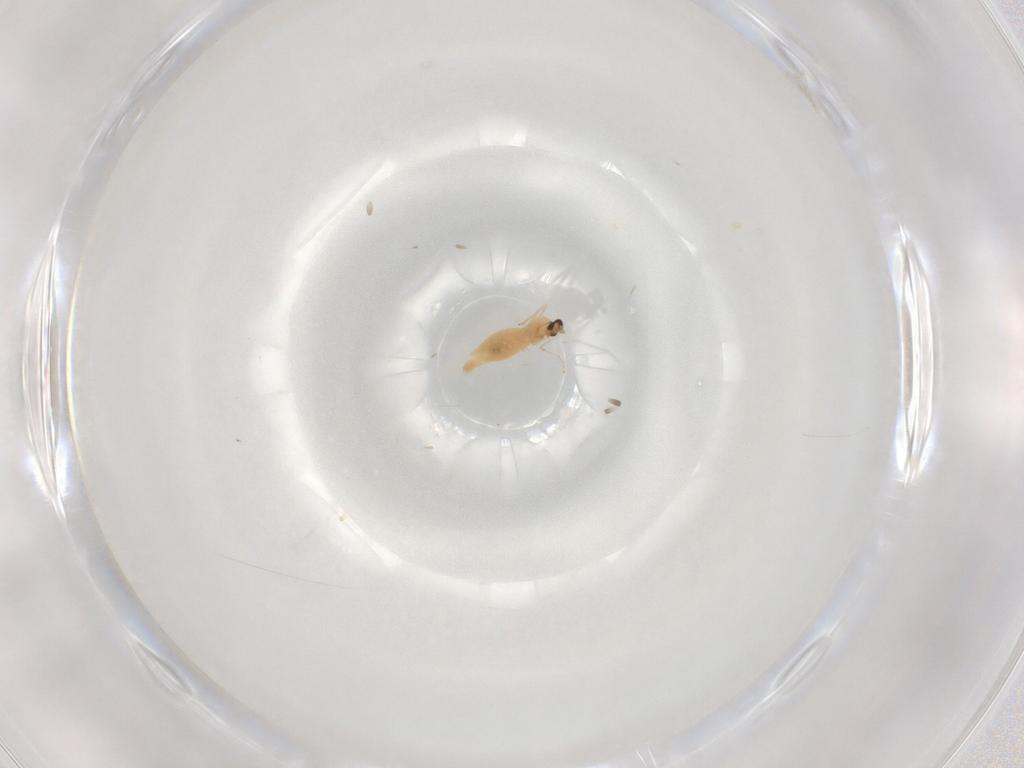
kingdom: Animalia
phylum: Arthropoda
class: Insecta
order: Diptera
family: Cecidomyiidae
